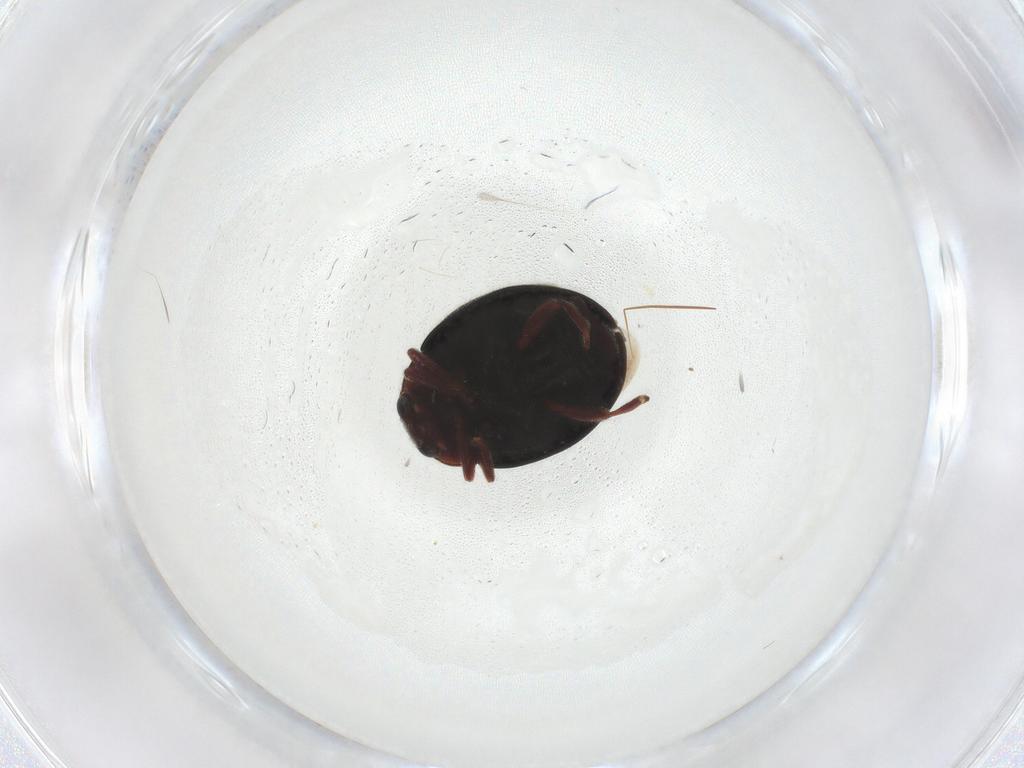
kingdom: Animalia
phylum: Arthropoda
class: Insecta
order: Coleoptera
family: Coccinellidae
